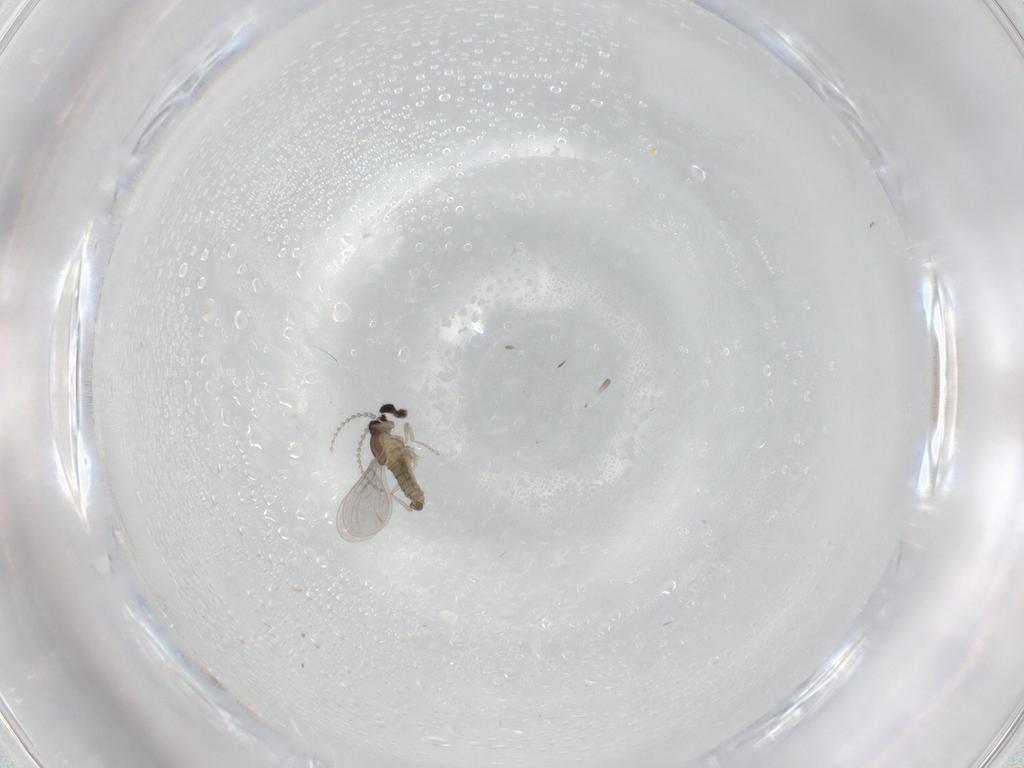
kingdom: Animalia
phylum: Arthropoda
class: Insecta
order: Diptera
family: Cecidomyiidae
